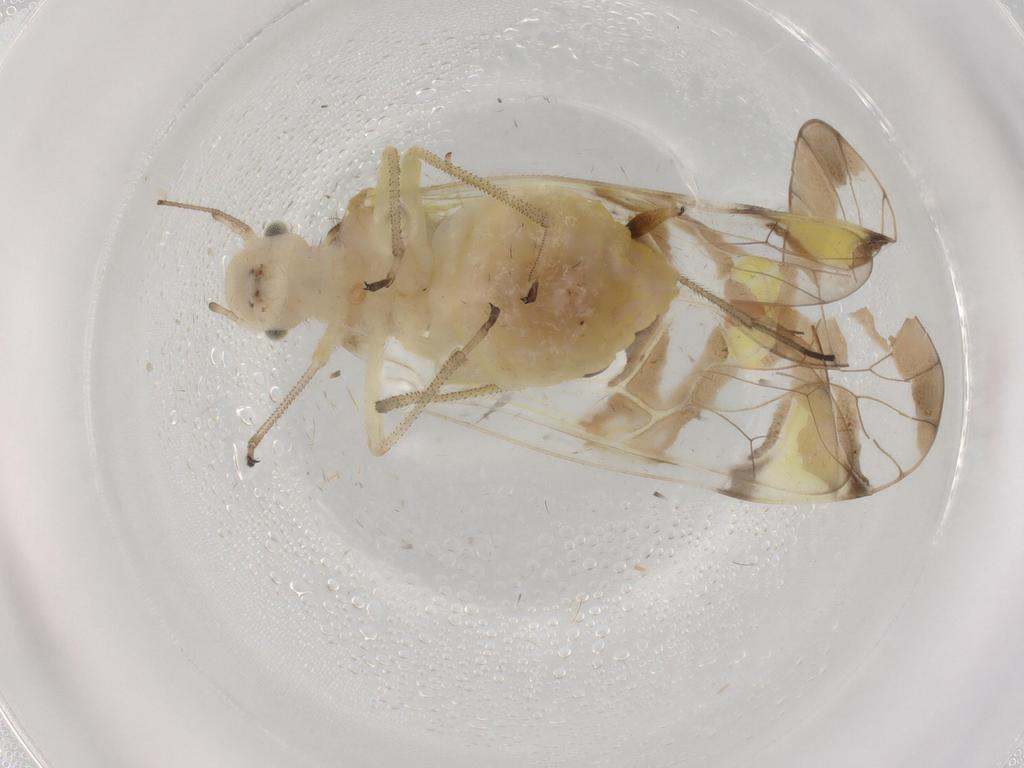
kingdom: Animalia
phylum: Arthropoda
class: Insecta
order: Psocodea
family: Amphipsocidae
